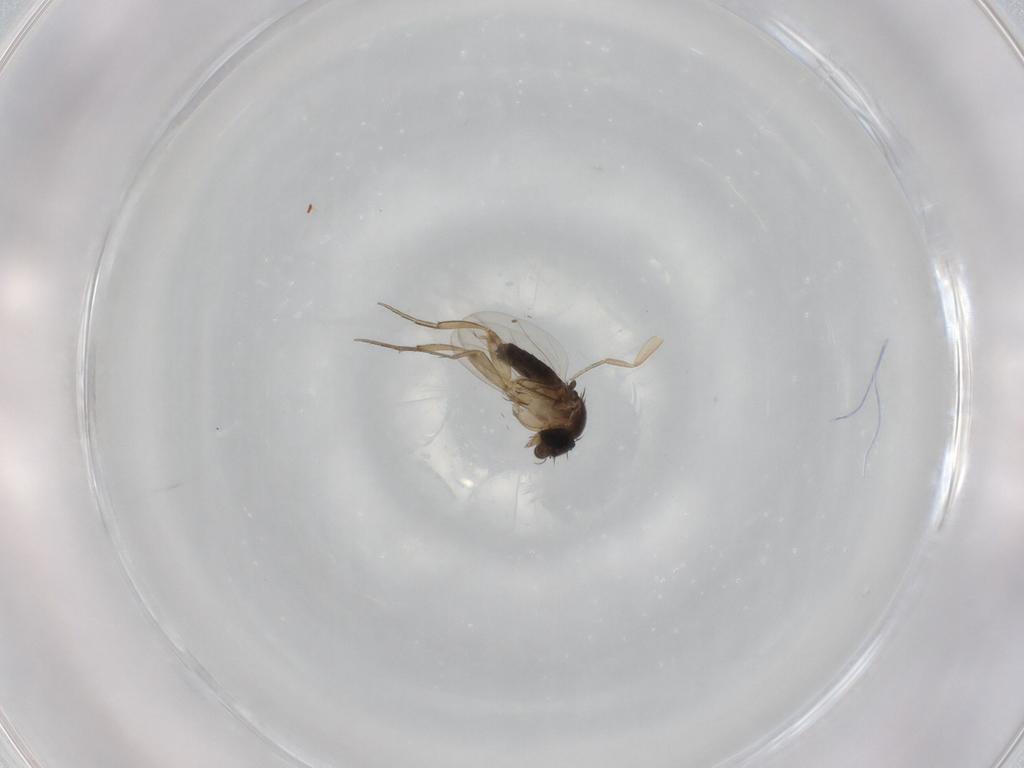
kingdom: Animalia
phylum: Arthropoda
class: Insecta
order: Diptera
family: Phoridae
